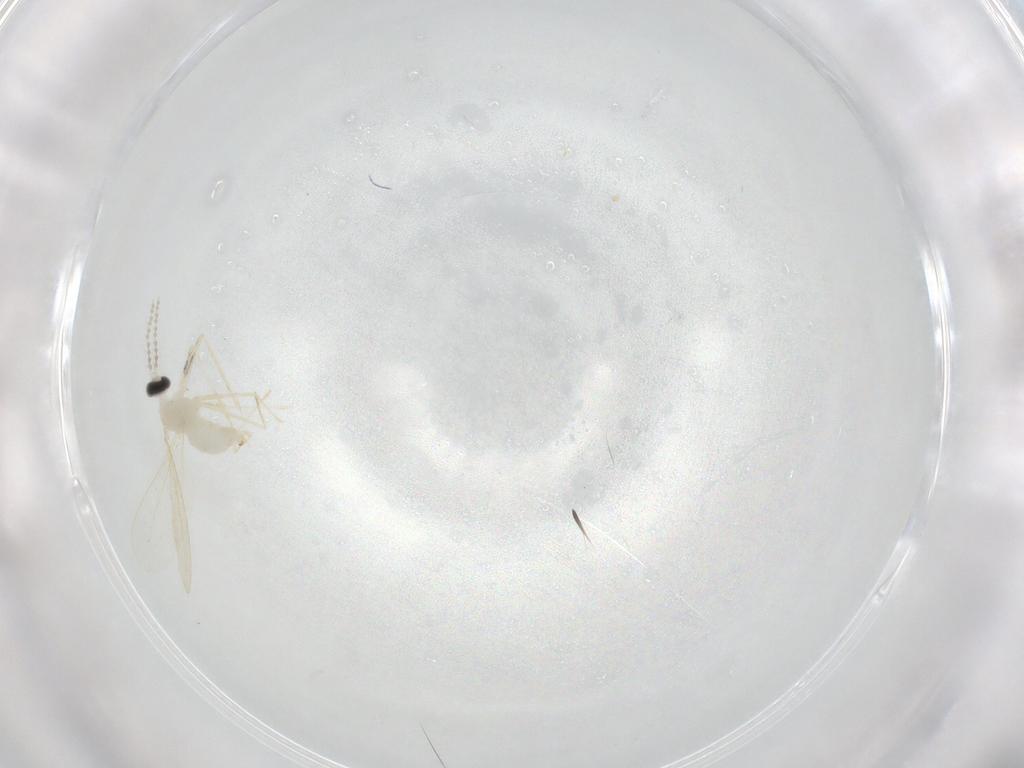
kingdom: Animalia
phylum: Arthropoda
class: Insecta
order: Diptera
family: Cecidomyiidae
